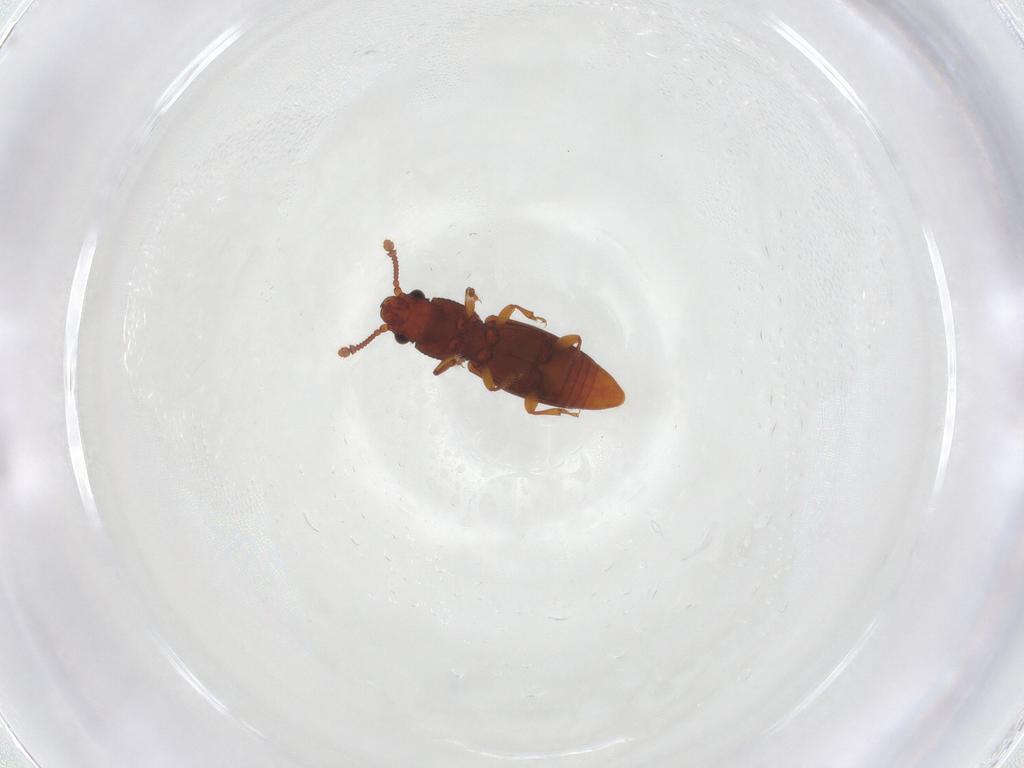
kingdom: Animalia
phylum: Arthropoda
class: Insecta
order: Coleoptera
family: Monotomidae
